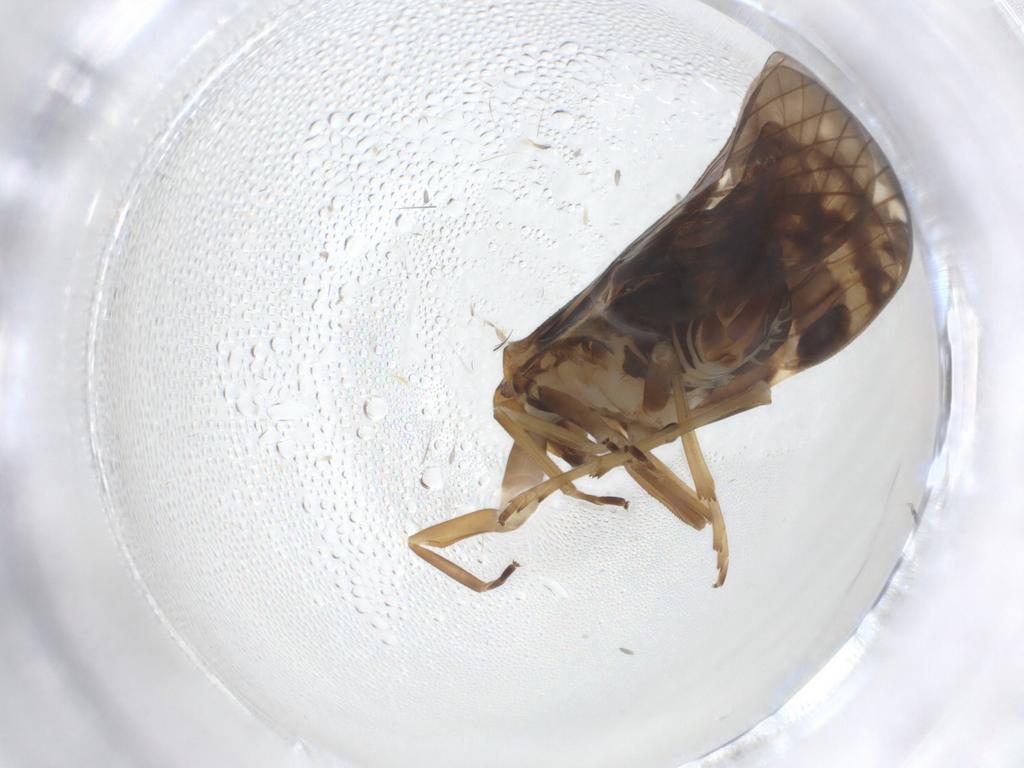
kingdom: Animalia
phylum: Arthropoda
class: Insecta
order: Hemiptera
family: Cixiidae
